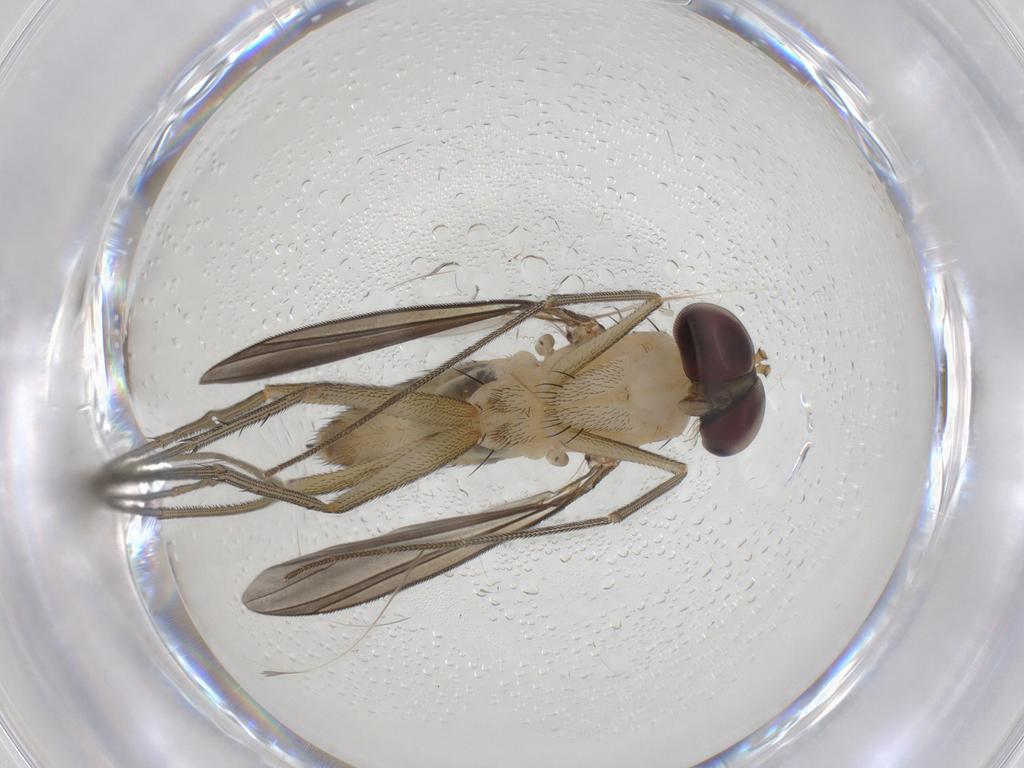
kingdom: Animalia
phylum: Arthropoda
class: Insecta
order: Diptera
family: Dolichopodidae
